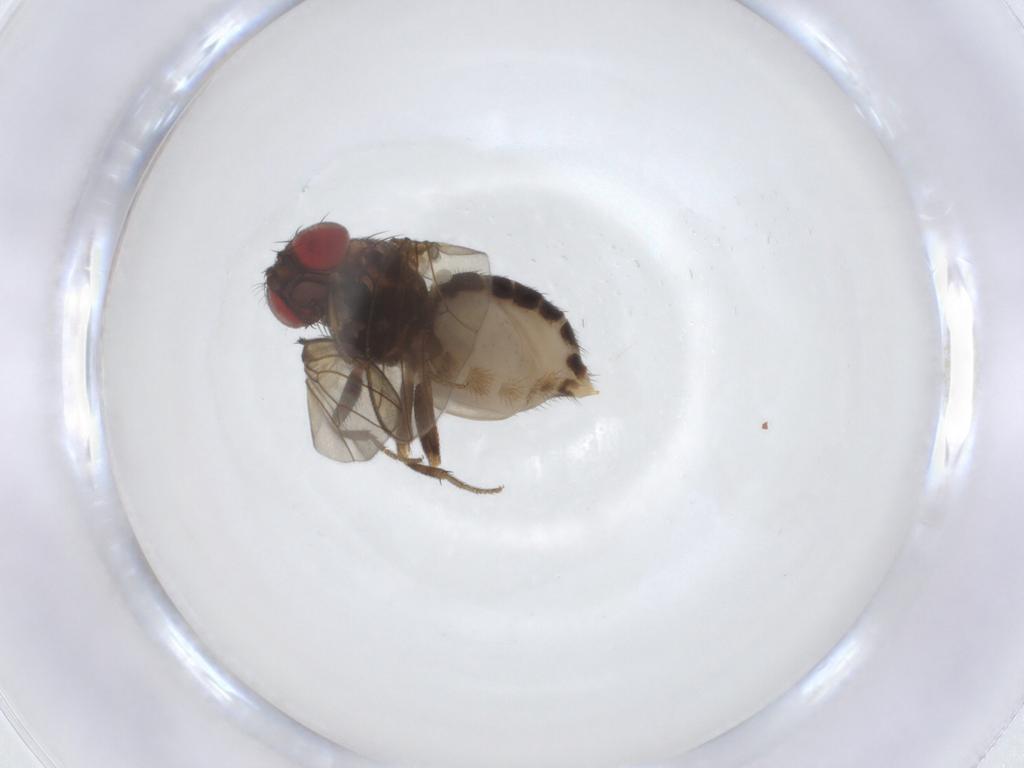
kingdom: Animalia
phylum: Arthropoda
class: Insecta
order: Diptera
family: Drosophilidae
